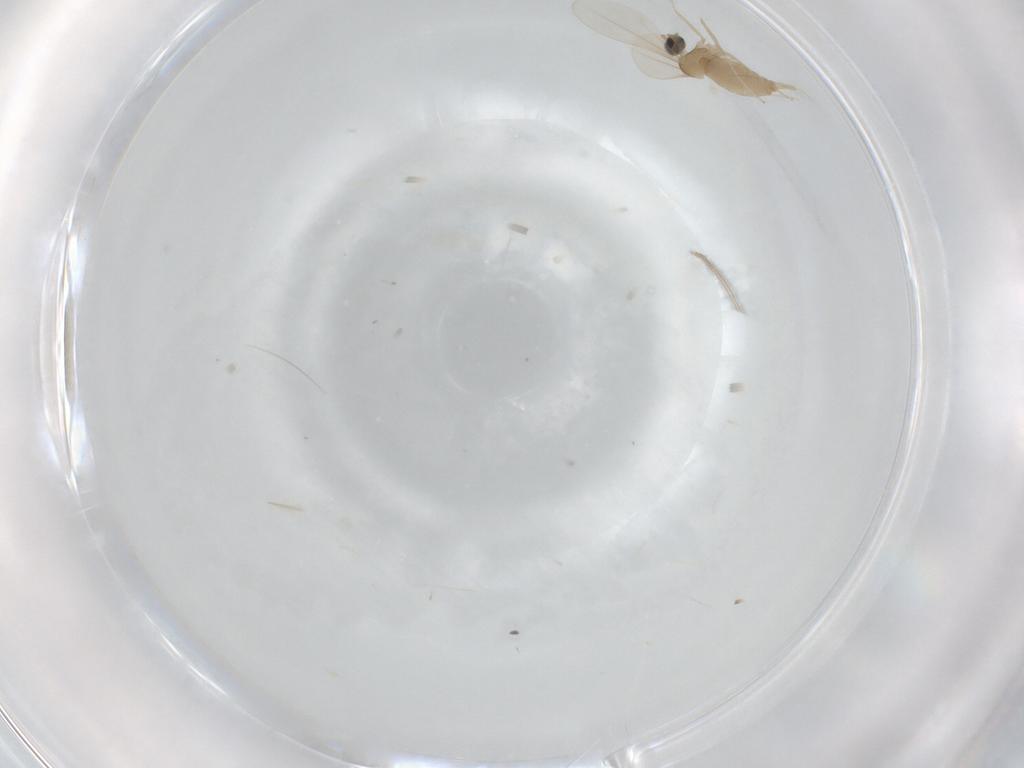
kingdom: Animalia
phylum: Arthropoda
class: Insecta
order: Diptera
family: Cecidomyiidae
